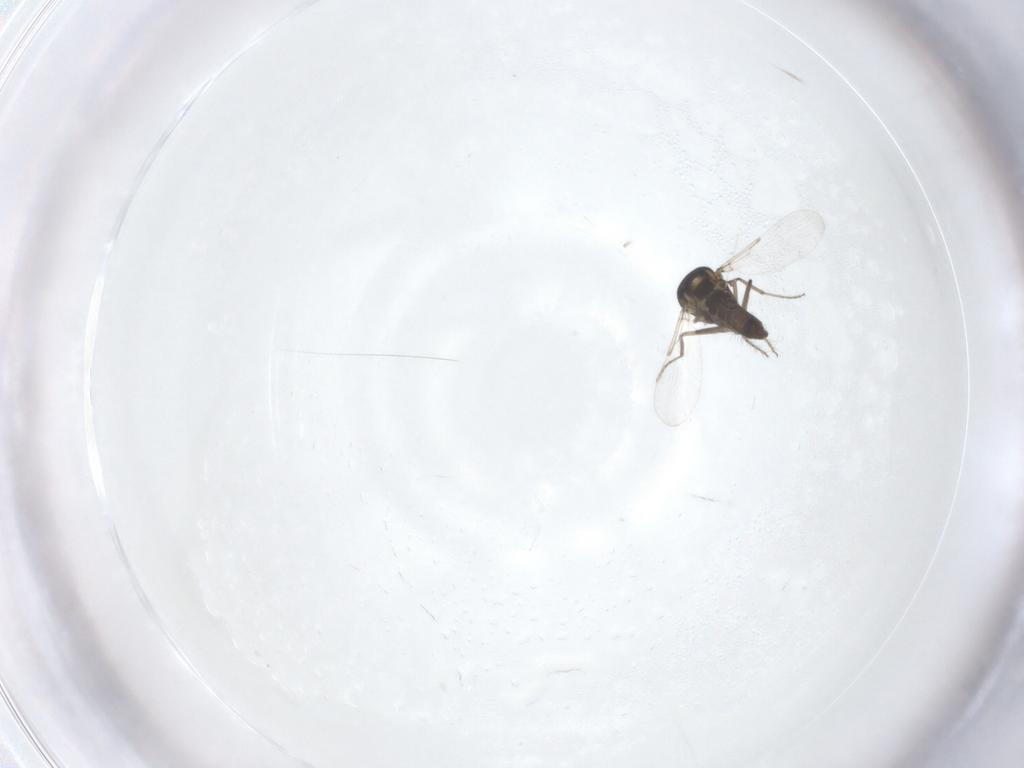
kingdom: Animalia
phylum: Arthropoda
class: Insecta
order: Diptera
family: Ceratopogonidae
